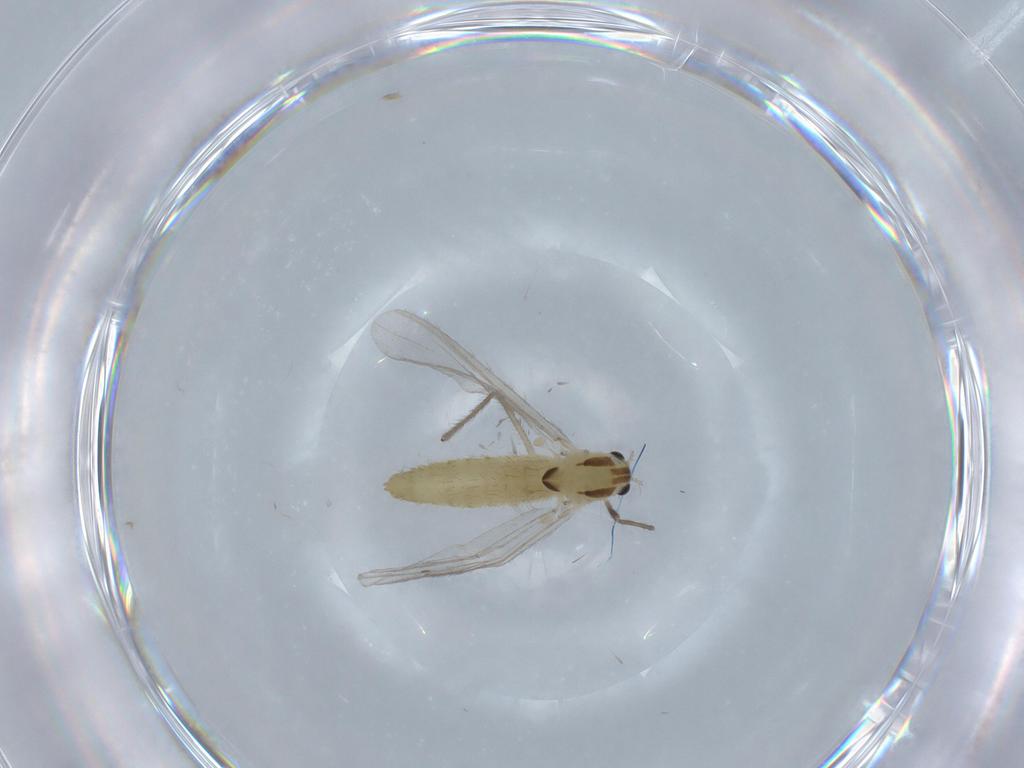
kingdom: Animalia
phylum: Arthropoda
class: Insecta
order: Diptera
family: Chironomidae
